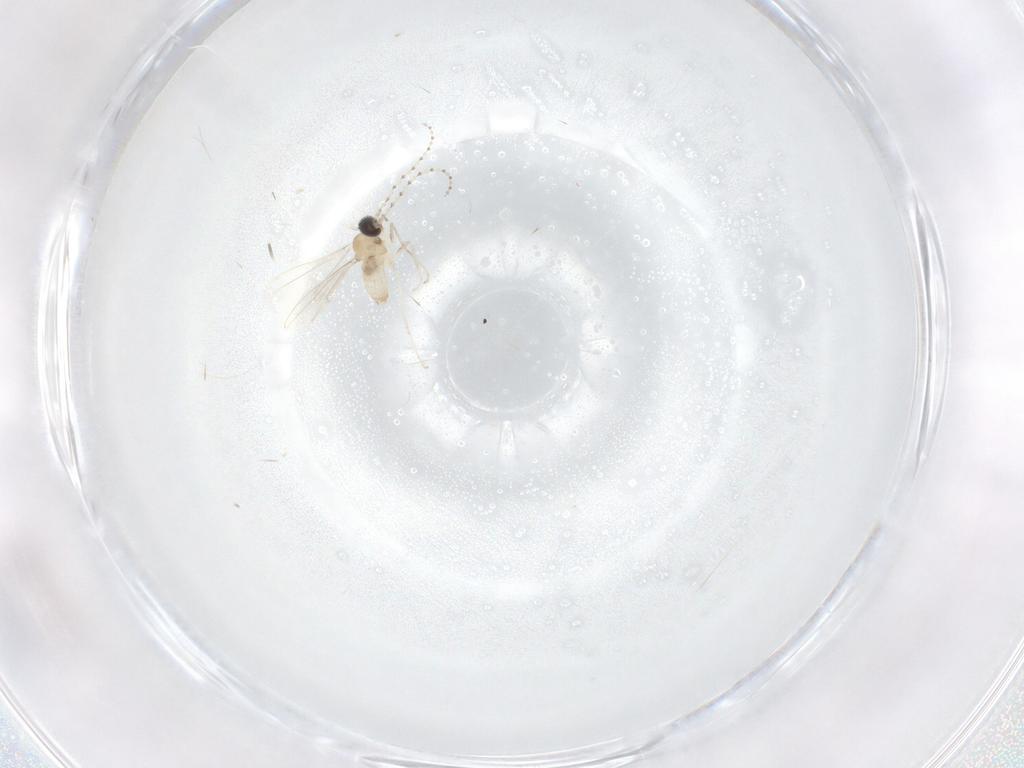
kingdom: Animalia
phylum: Arthropoda
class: Insecta
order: Diptera
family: Cecidomyiidae
